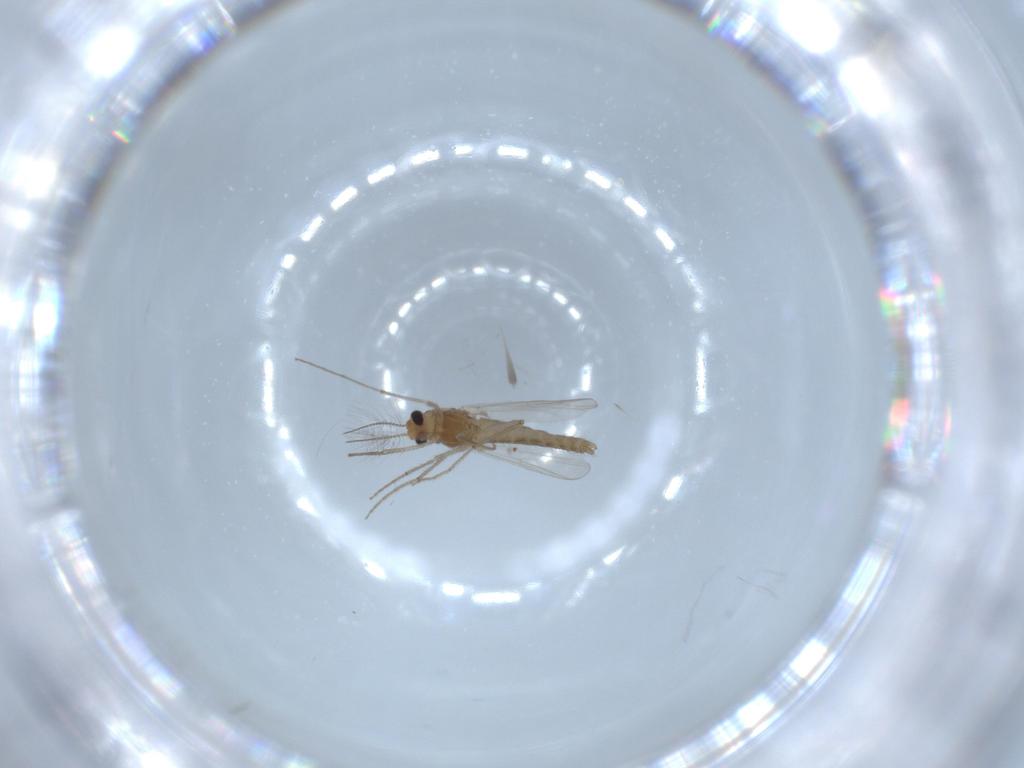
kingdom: Animalia
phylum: Arthropoda
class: Insecta
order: Diptera
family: Chironomidae
